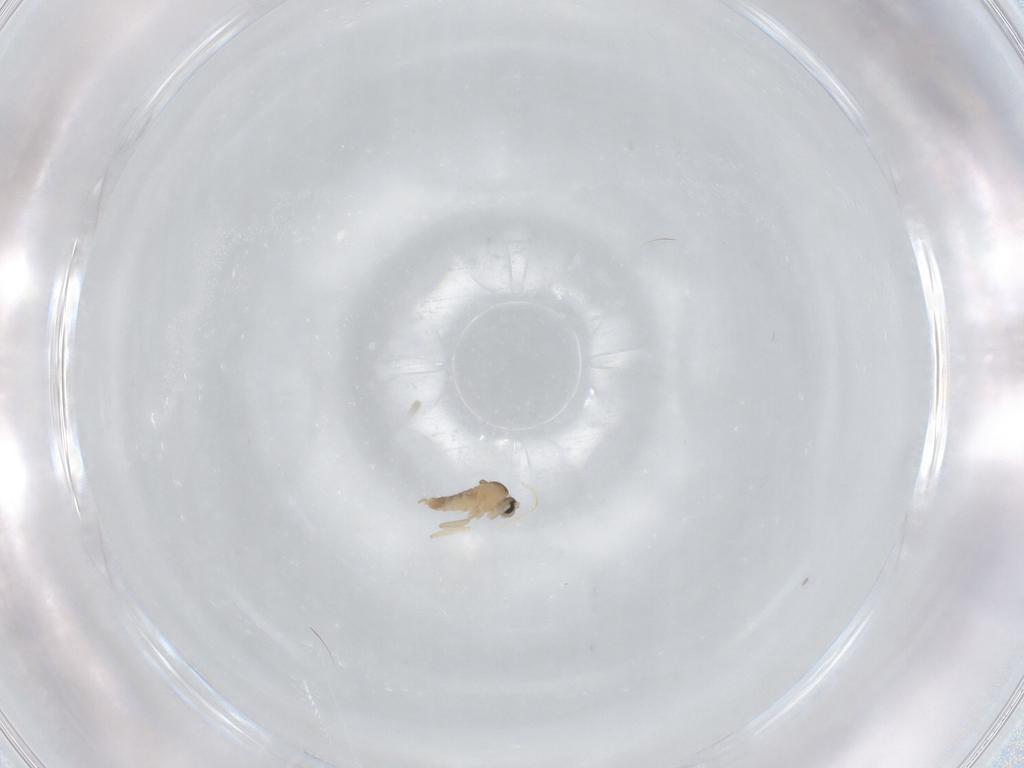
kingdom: Animalia
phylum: Arthropoda
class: Insecta
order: Diptera
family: Cecidomyiidae
